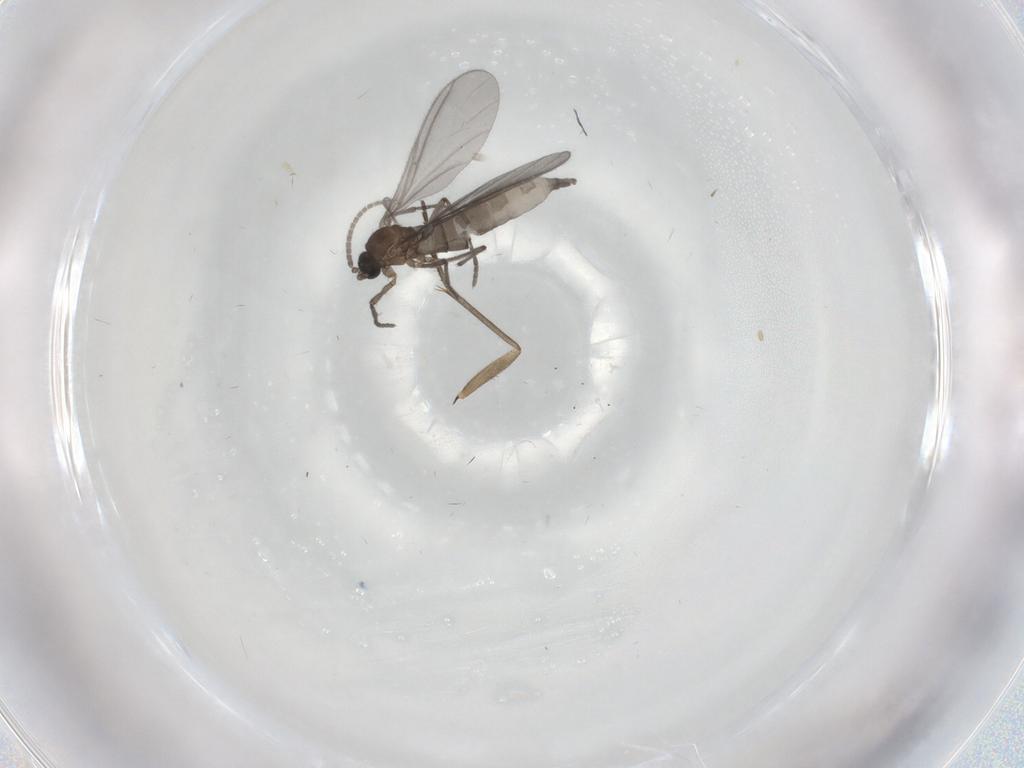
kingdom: Animalia
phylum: Arthropoda
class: Insecta
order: Diptera
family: Sciaridae
